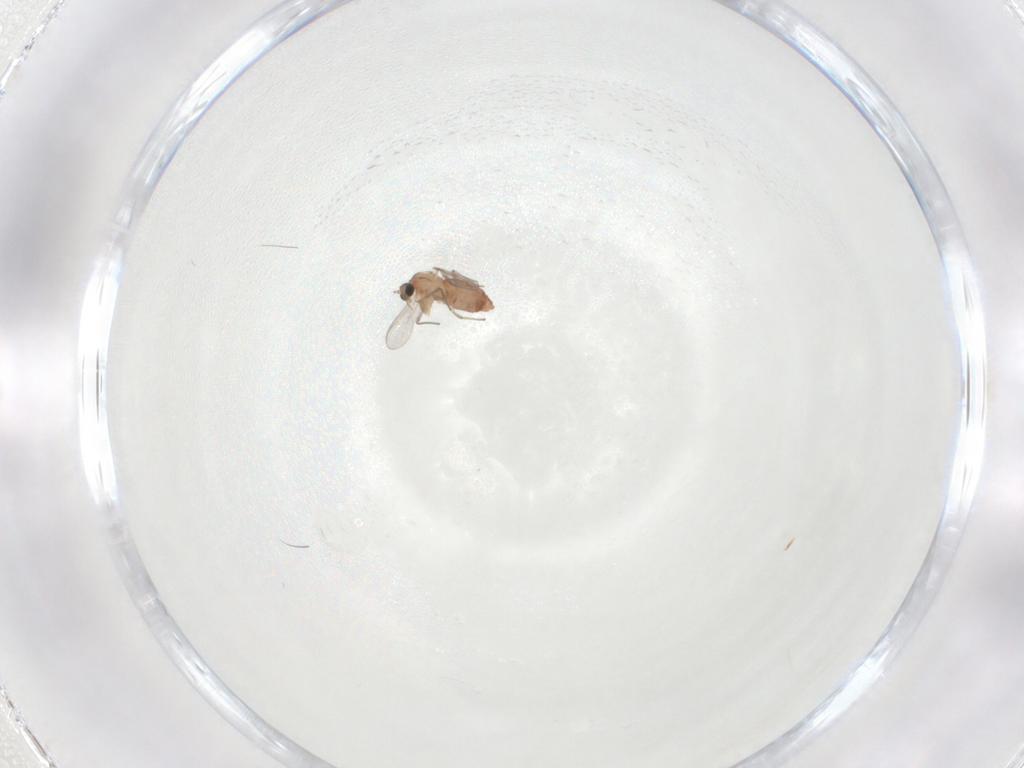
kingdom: Animalia
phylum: Arthropoda
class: Insecta
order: Diptera
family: Chironomidae
